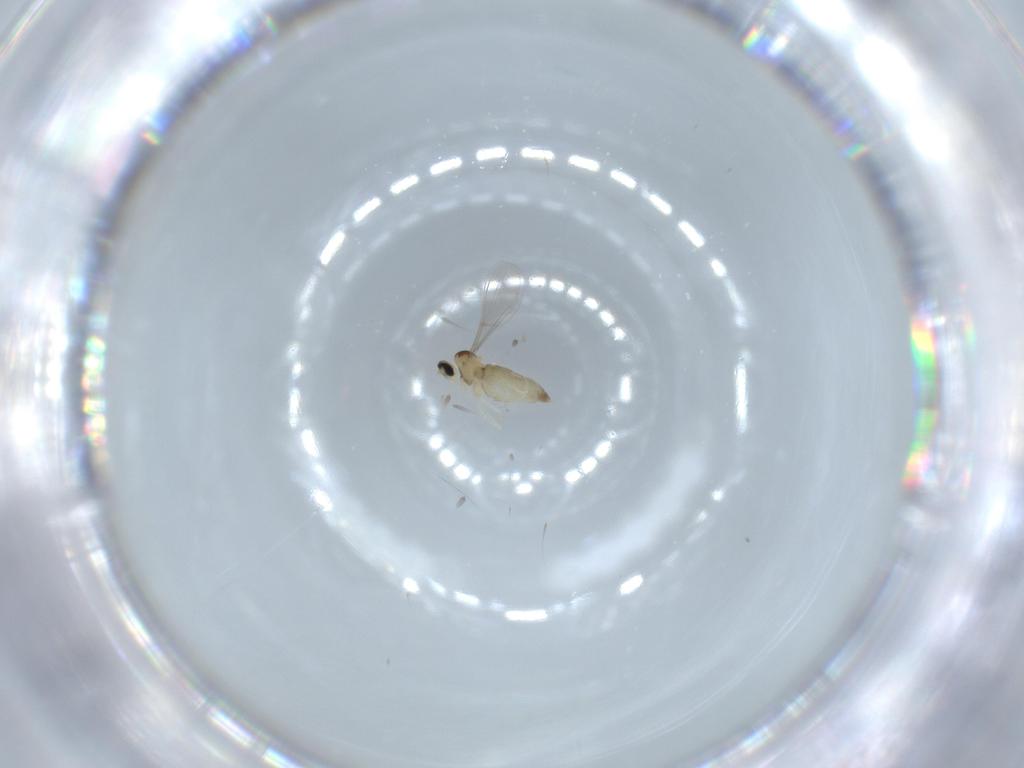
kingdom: Animalia
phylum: Arthropoda
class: Insecta
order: Diptera
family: Cecidomyiidae
